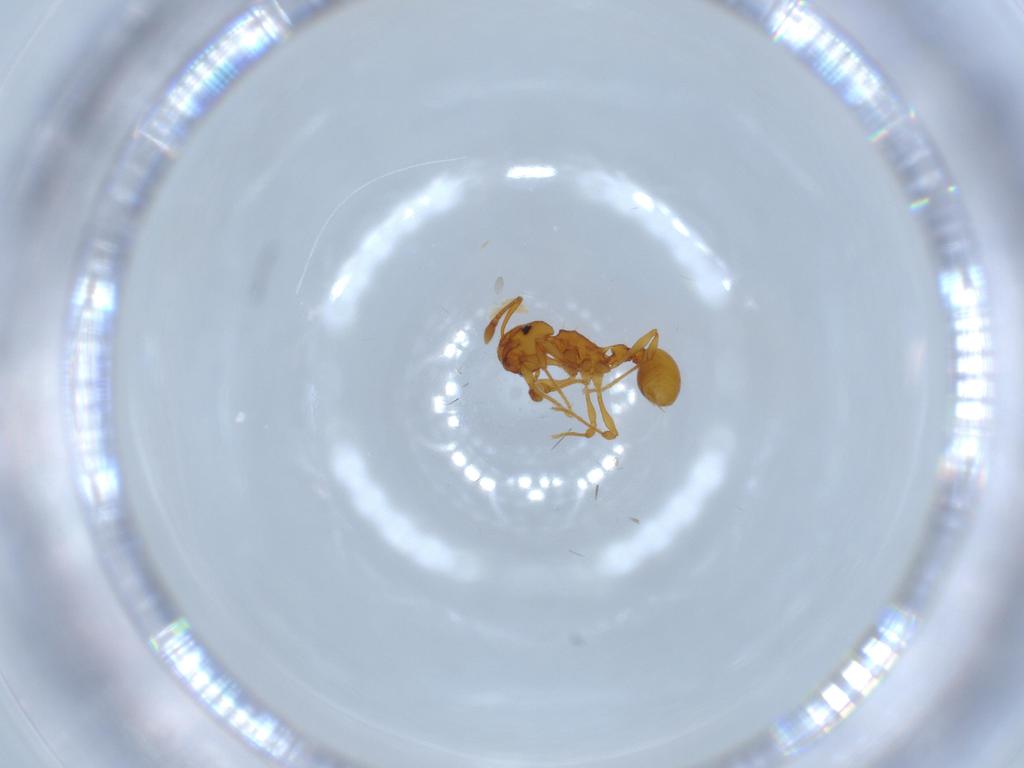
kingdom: Animalia
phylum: Arthropoda
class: Insecta
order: Hymenoptera
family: Formicidae
